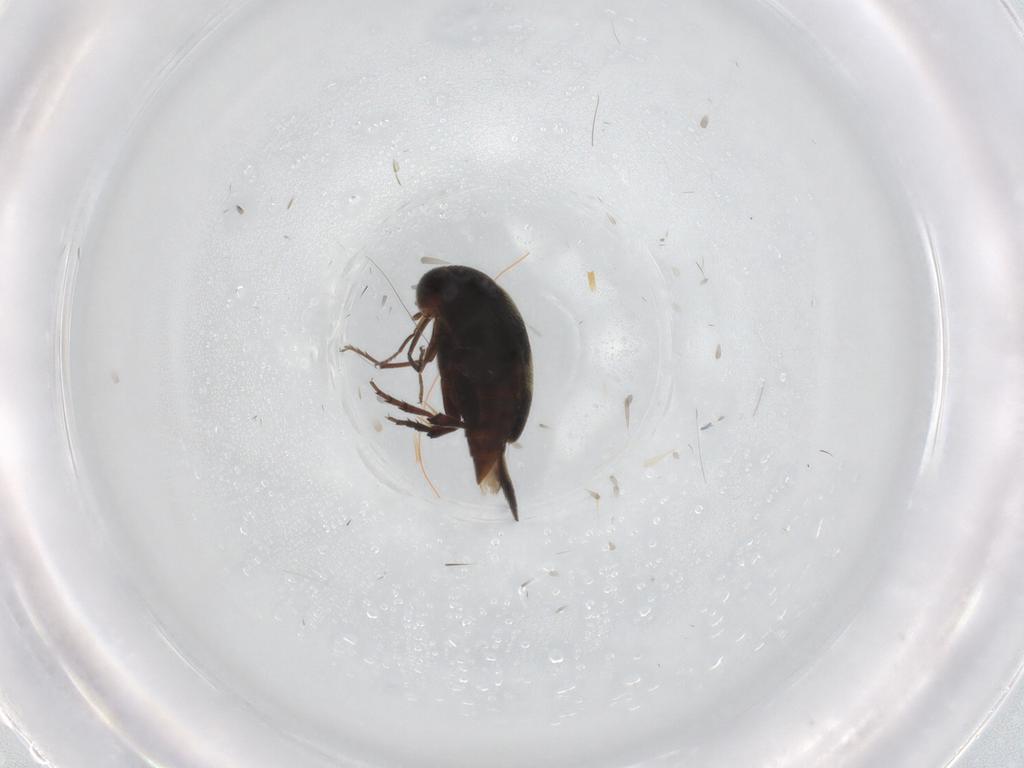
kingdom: Animalia
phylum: Arthropoda
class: Insecta
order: Coleoptera
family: Mordellidae
